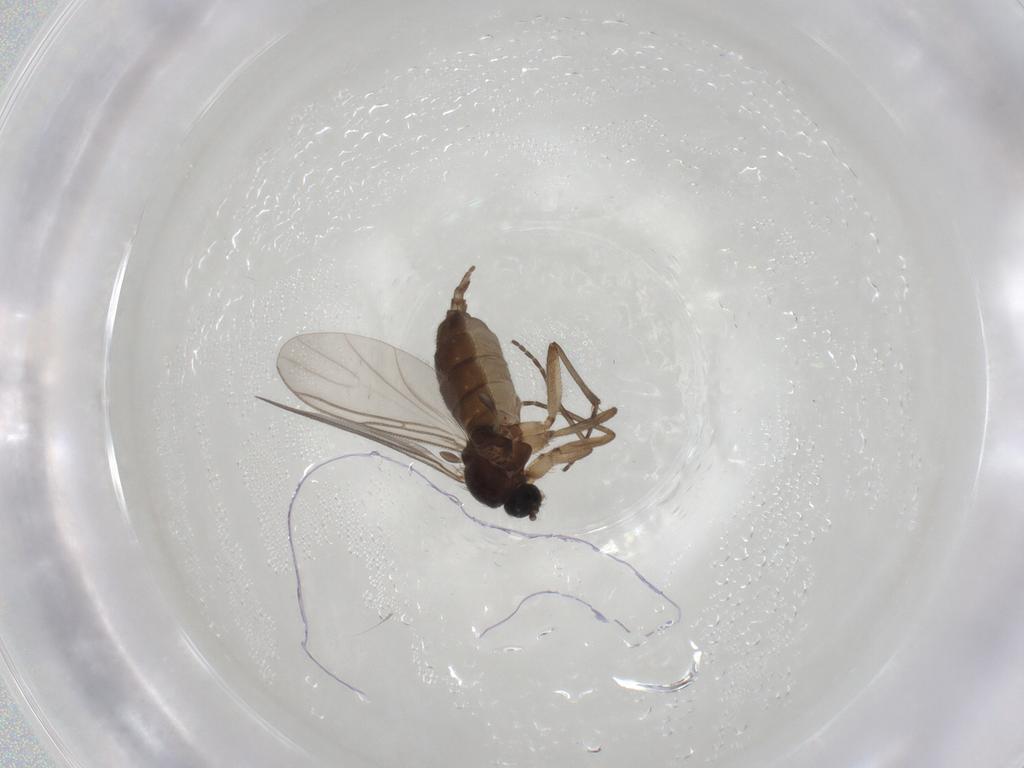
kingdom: Animalia
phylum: Arthropoda
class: Insecta
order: Diptera
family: Sciaridae
